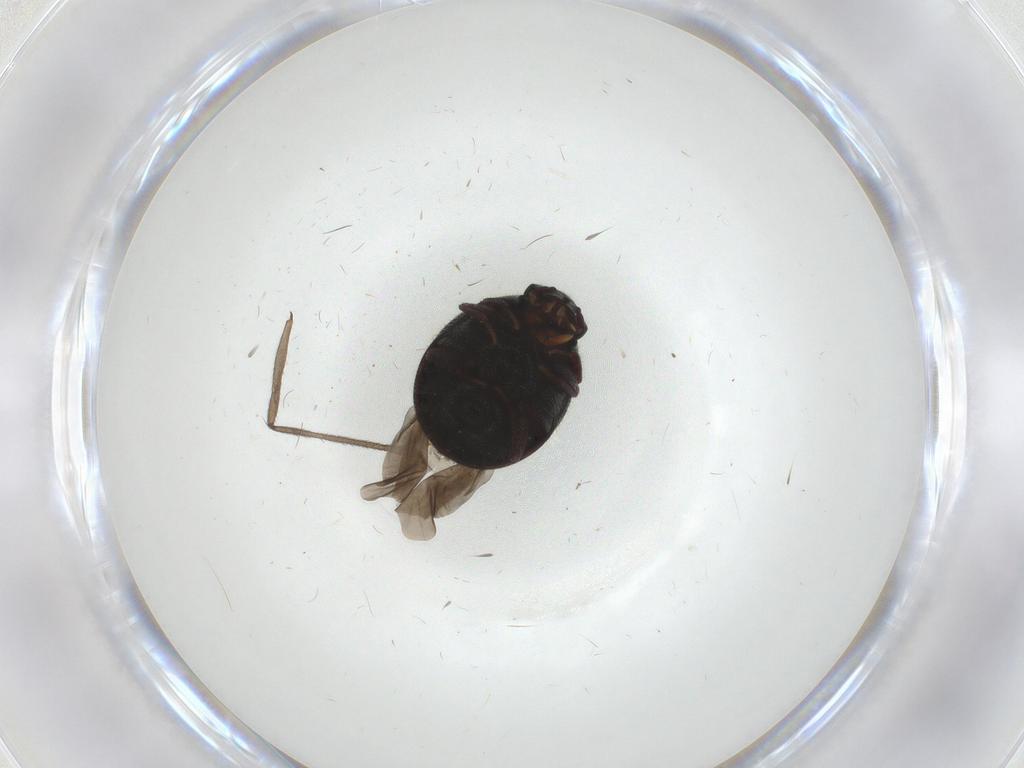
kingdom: Animalia
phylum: Arthropoda
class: Insecta
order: Coleoptera
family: Ptinidae
